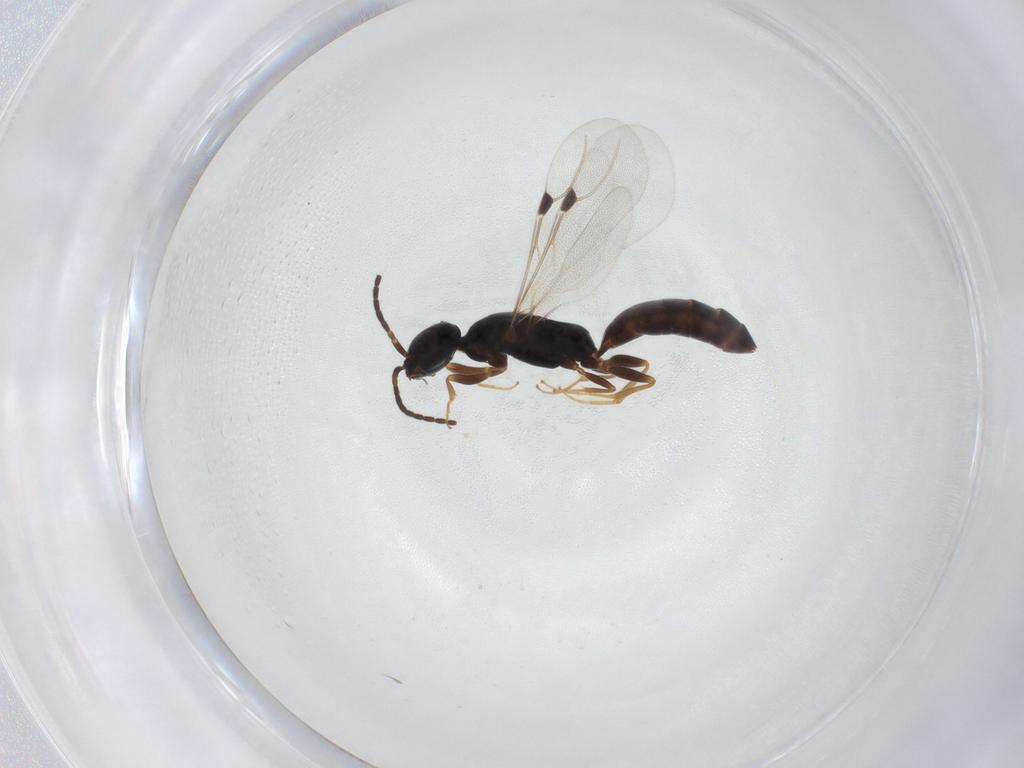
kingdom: Animalia
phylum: Arthropoda
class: Insecta
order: Hymenoptera
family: Bethylidae
